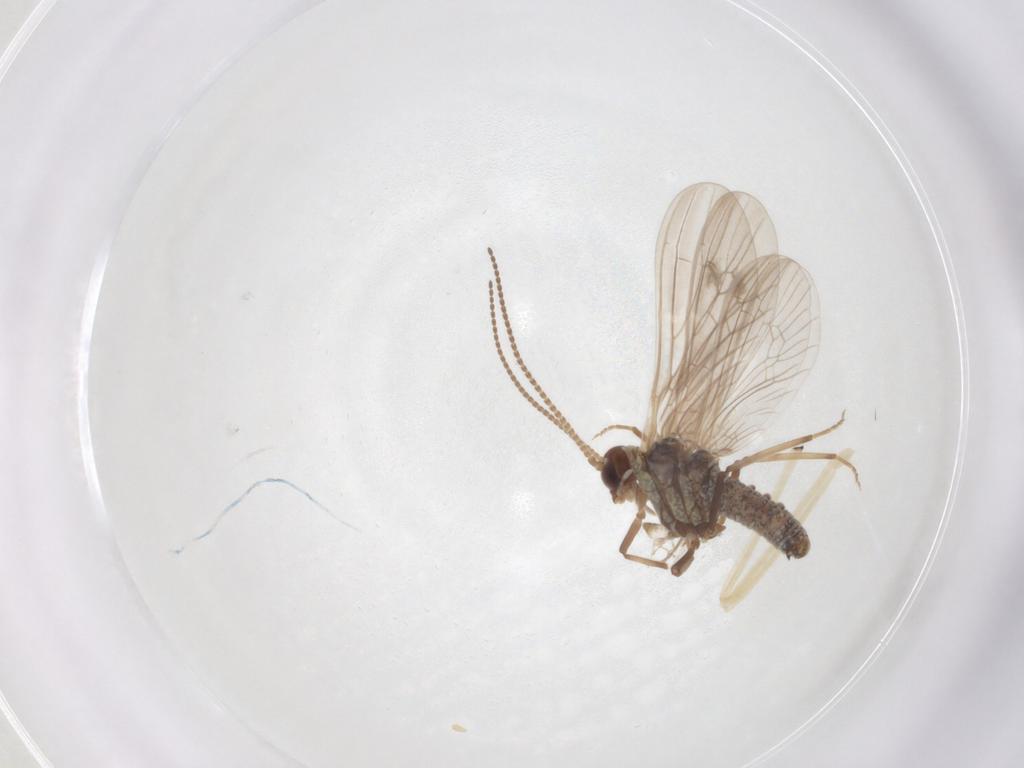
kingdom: Animalia
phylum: Arthropoda
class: Insecta
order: Neuroptera
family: Coniopterygidae
